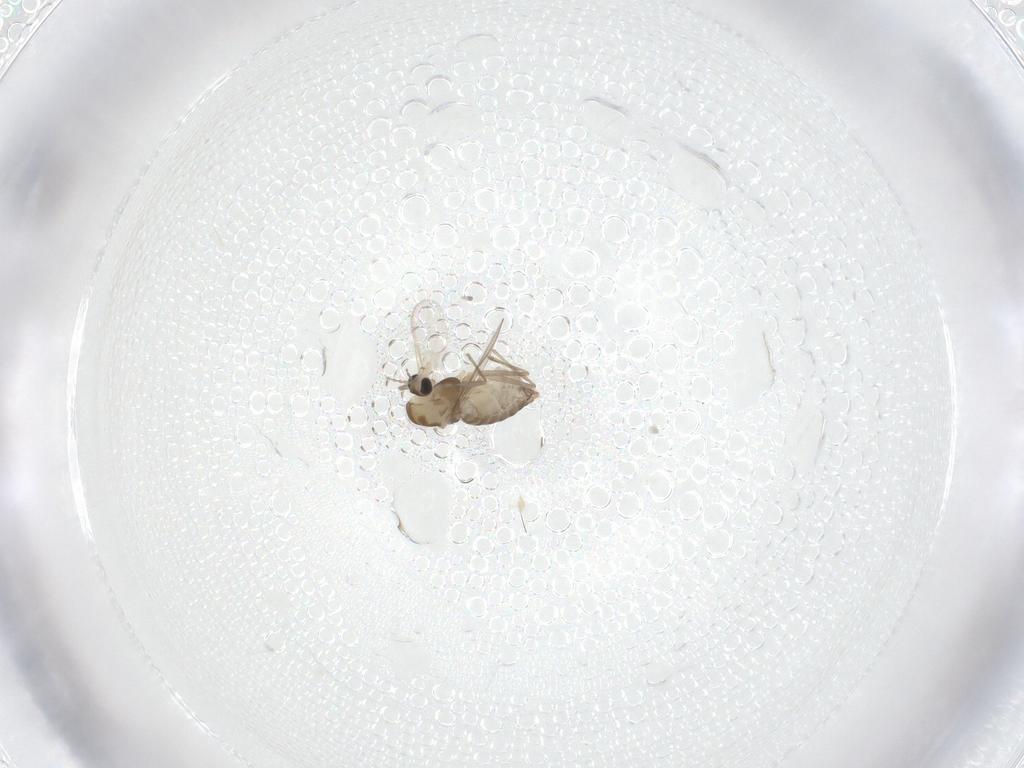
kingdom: Animalia
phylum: Arthropoda
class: Insecta
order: Diptera
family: Chironomidae
